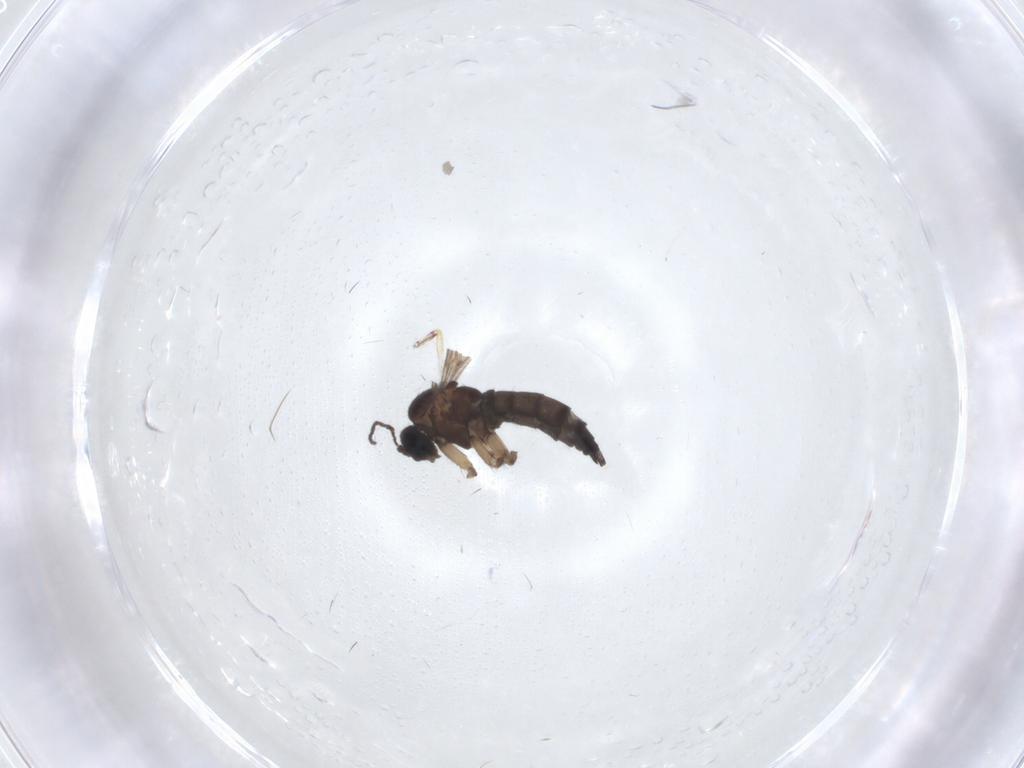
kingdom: Animalia
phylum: Arthropoda
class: Insecta
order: Diptera
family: Sciaridae
